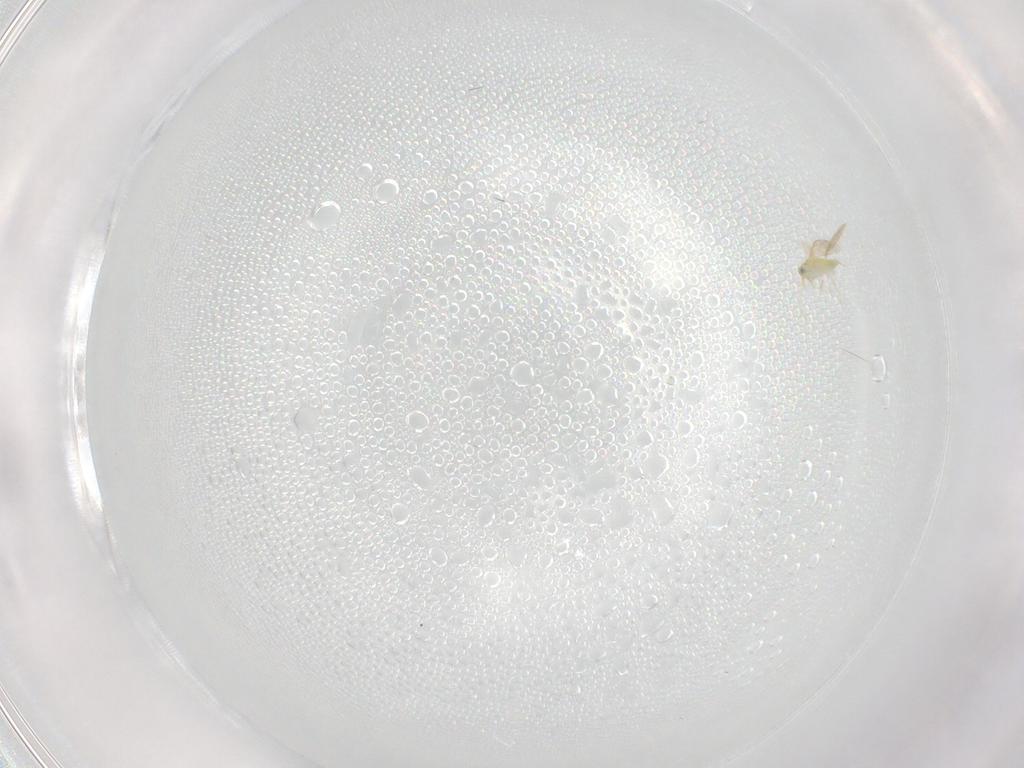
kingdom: Animalia
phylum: Arthropoda
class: Insecta
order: Hymenoptera
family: Aphelinidae
